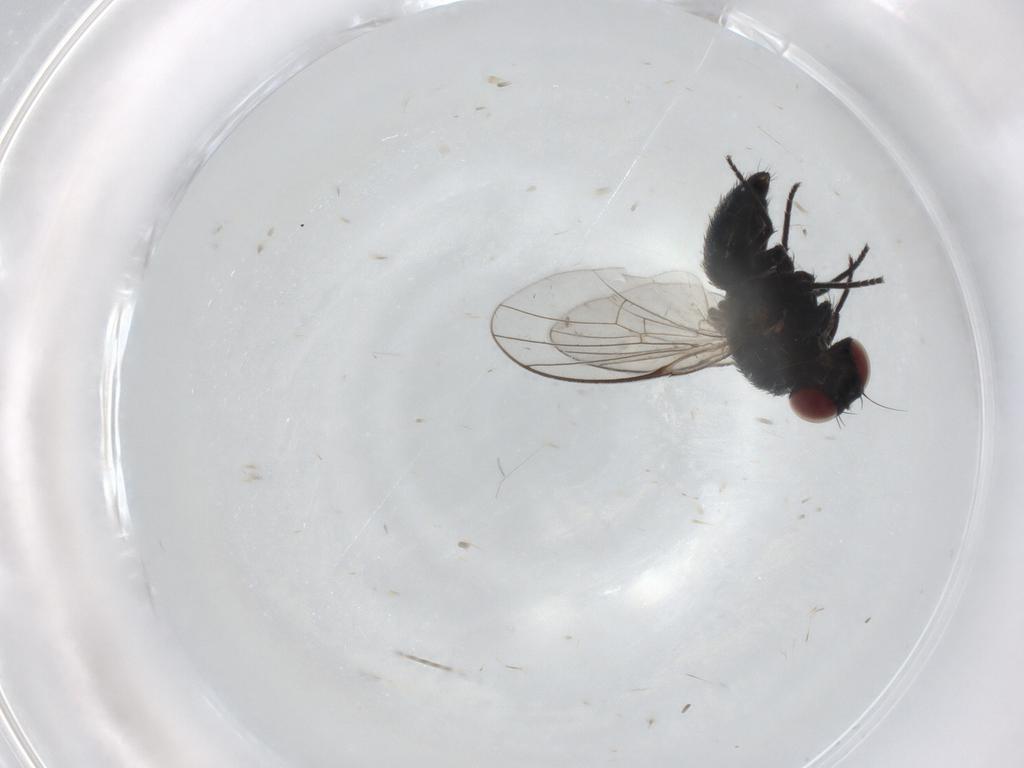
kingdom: Animalia
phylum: Arthropoda
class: Insecta
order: Diptera
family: Agromyzidae
